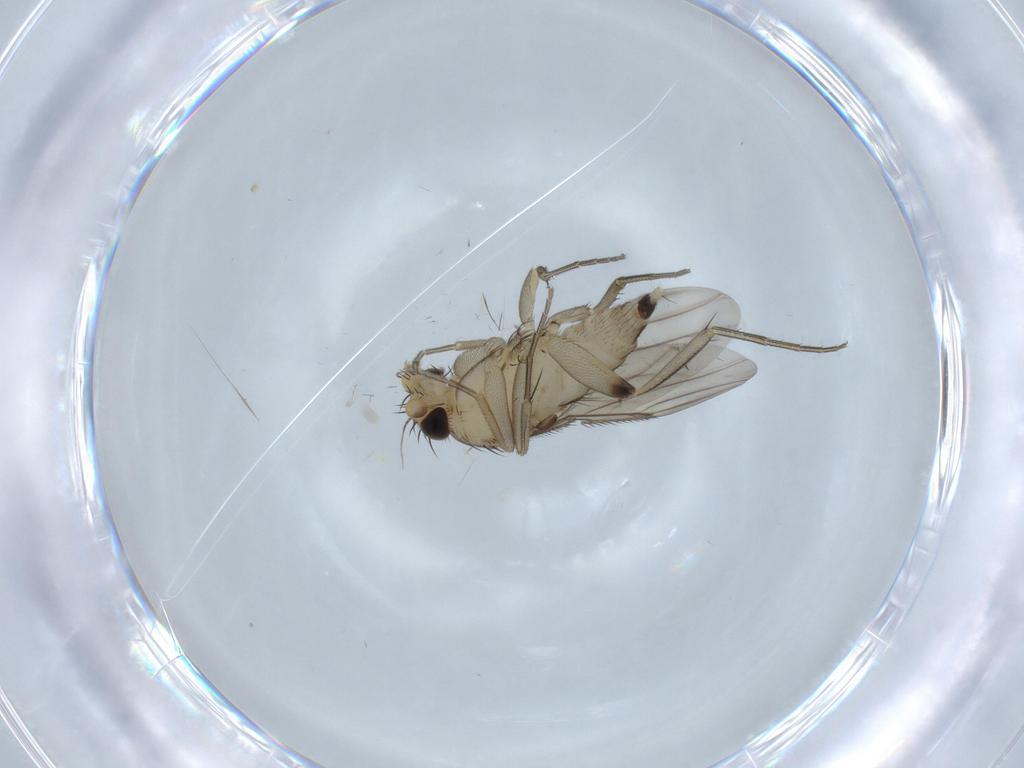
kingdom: Animalia
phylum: Arthropoda
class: Insecta
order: Diptera
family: Phoridae
